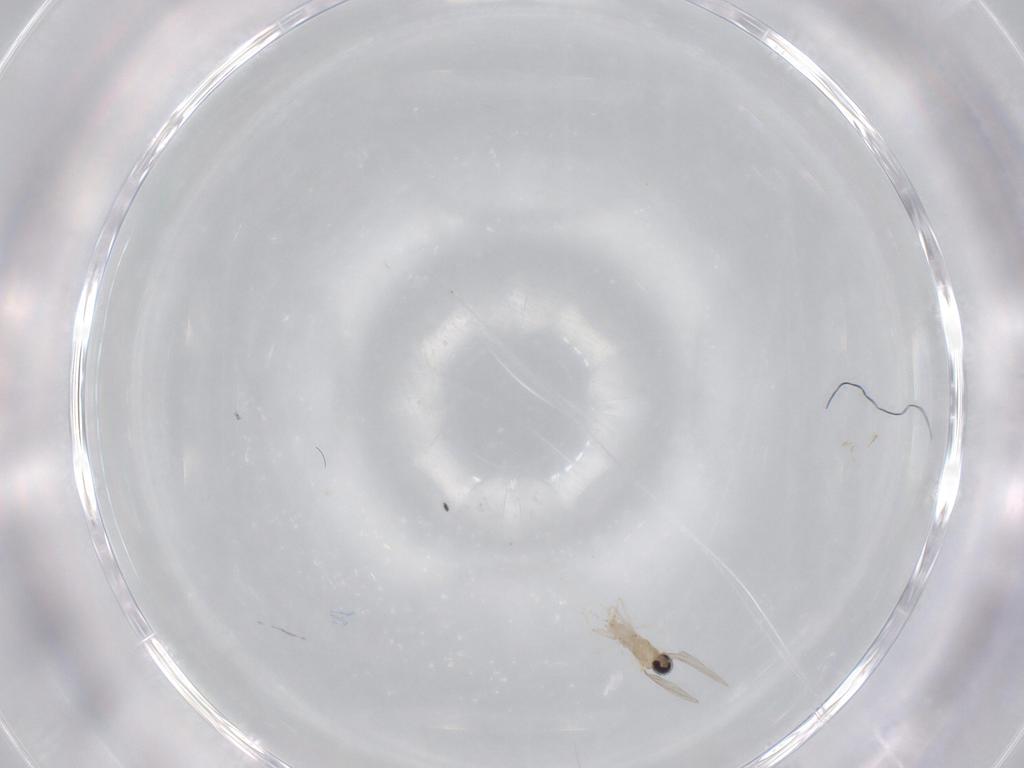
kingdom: Animalia
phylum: Arthropoda
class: Insecta
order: Diptera
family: Cecidomyiidae
